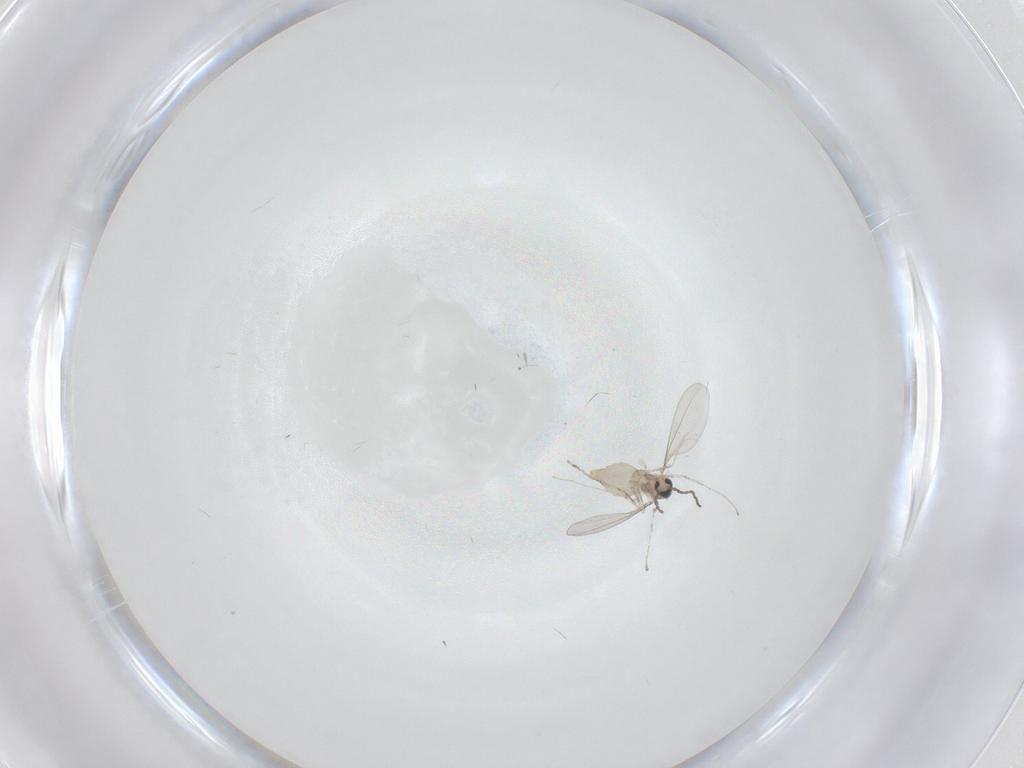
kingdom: Animalia
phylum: Arthropoda
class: Insecta
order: Diptera
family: Cecidomyiidae
